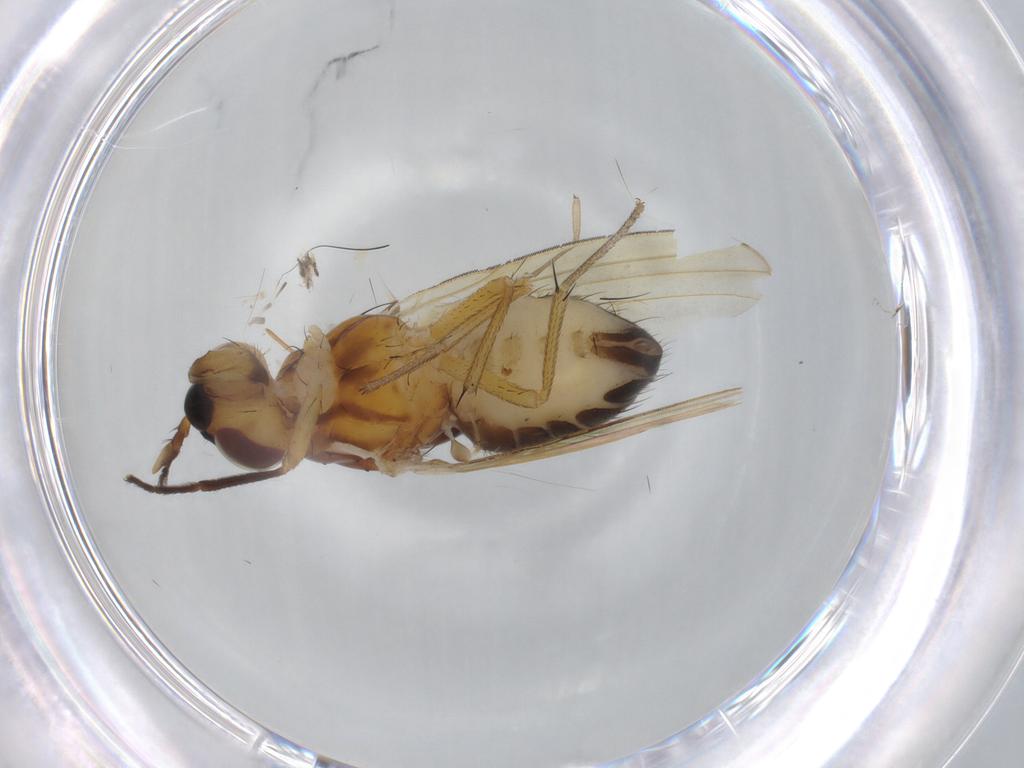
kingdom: Animalia
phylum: Arthropoda
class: Insecta
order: Diptera
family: Lauxaniidae
